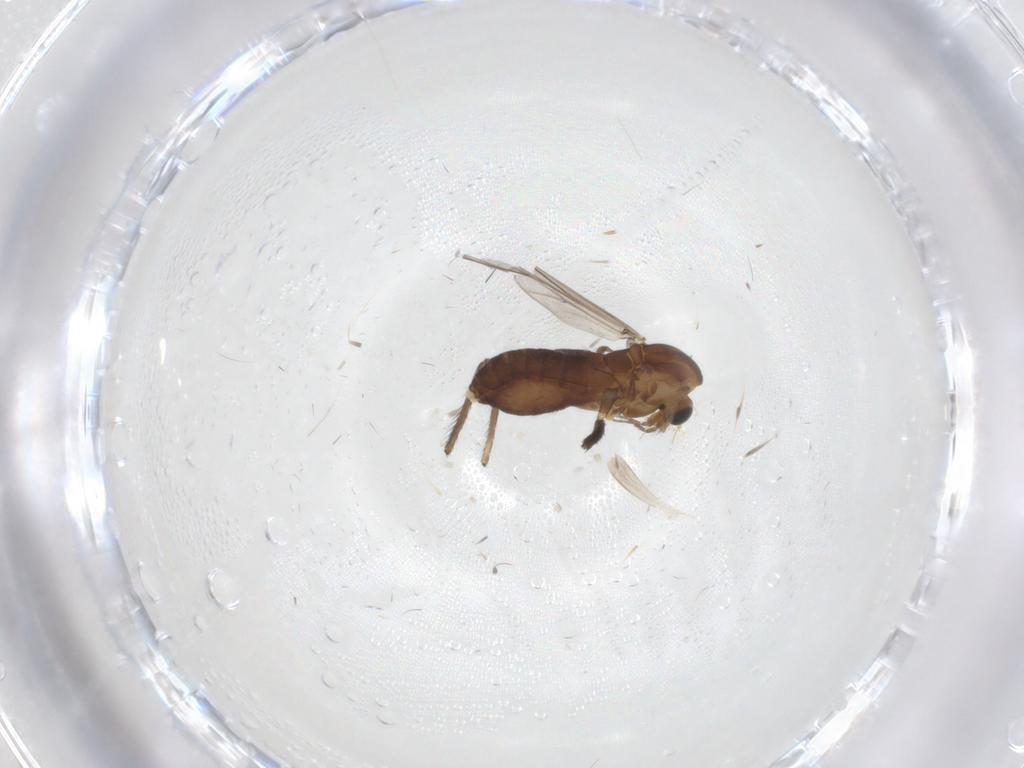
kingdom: Animalia
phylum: Arthropoda
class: Insecta
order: Diptera
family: Chironomidae
